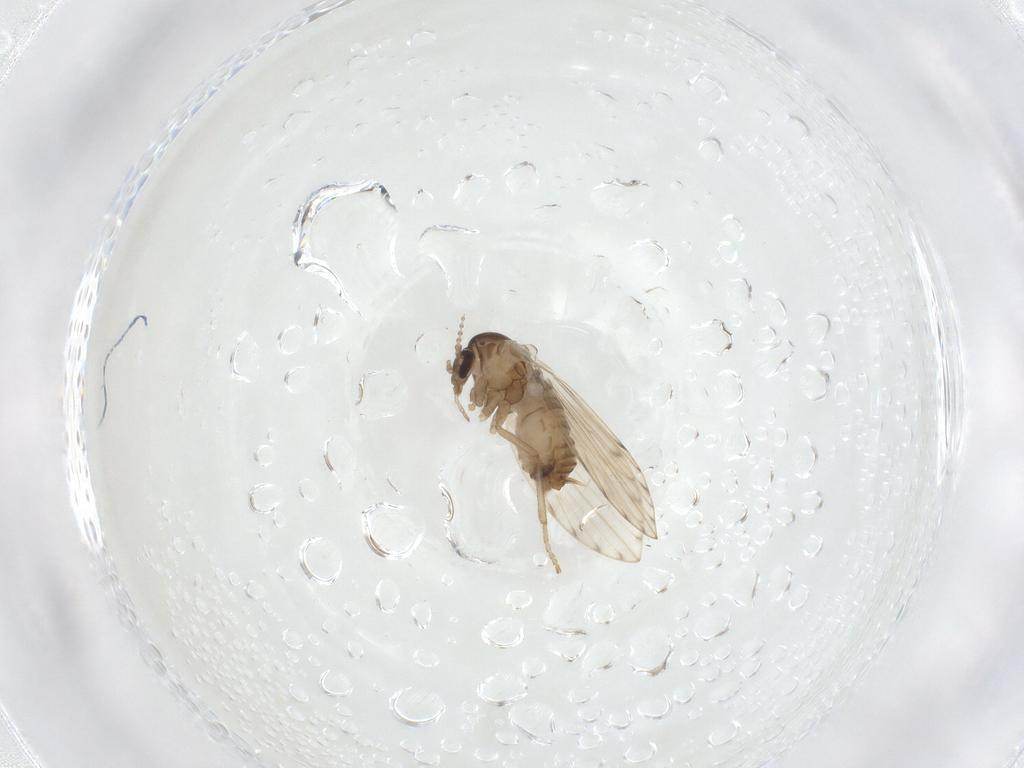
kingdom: Animalia
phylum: Arthropoda
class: Insecta
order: Diptera
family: Psychodidae
